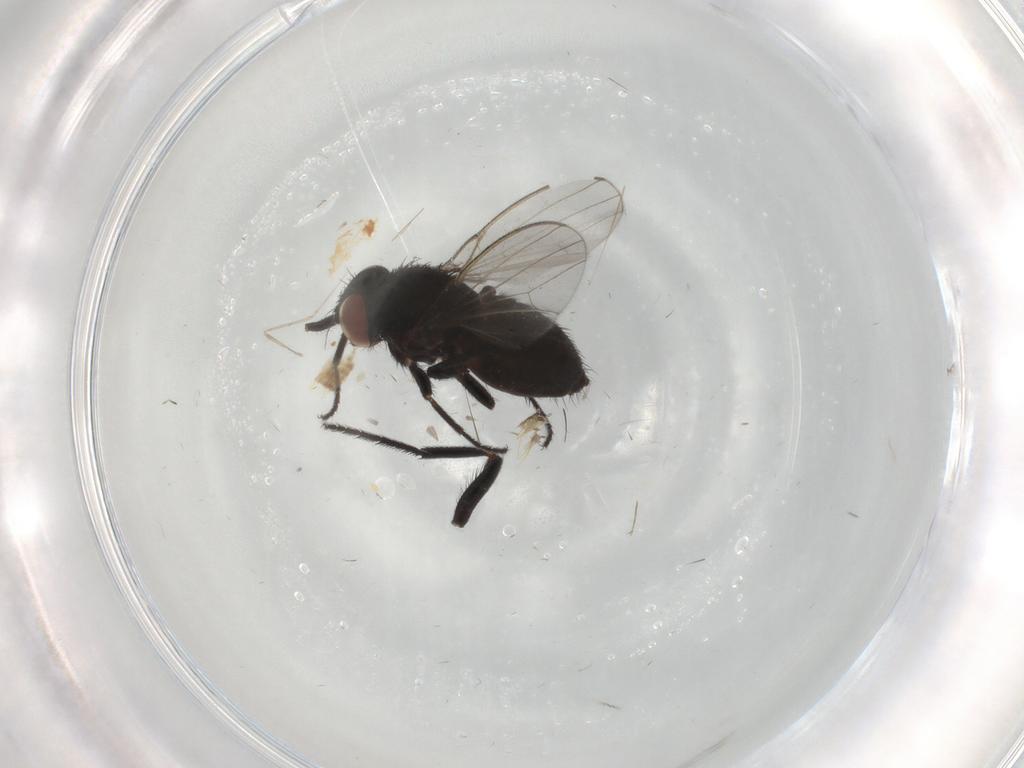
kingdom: Animalia
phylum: Arthropoda
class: Insecta
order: Diptera
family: Milichiidae
